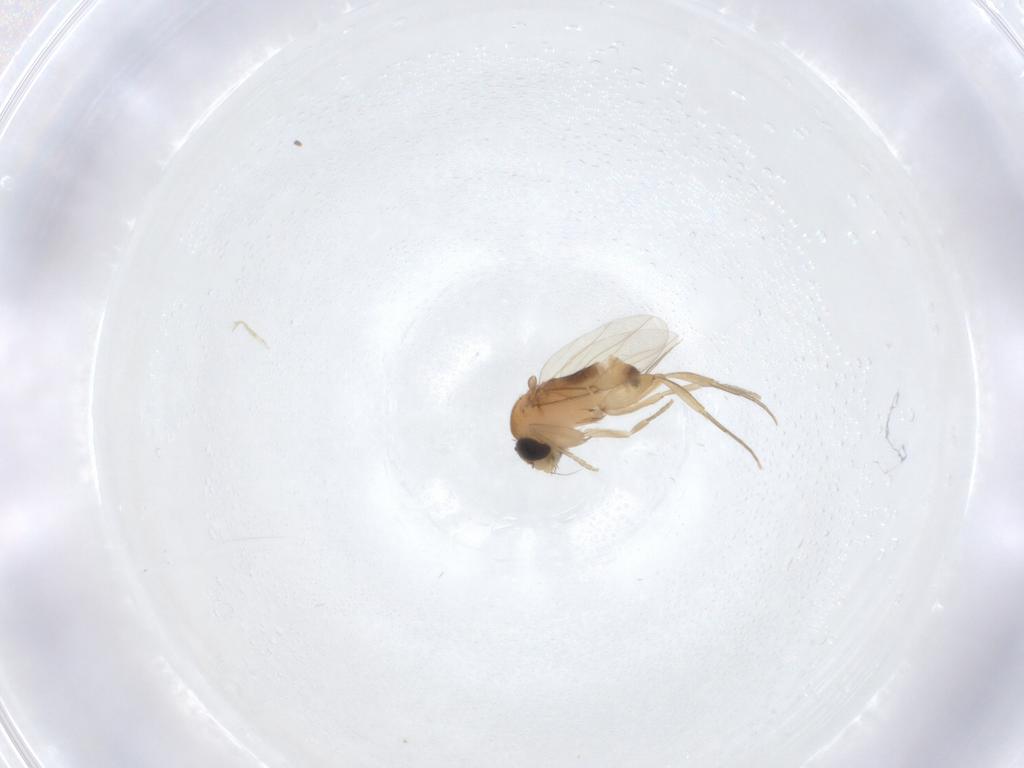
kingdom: Animalia
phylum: Arthropoda
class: Insecta
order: Diptera
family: Phoridae
